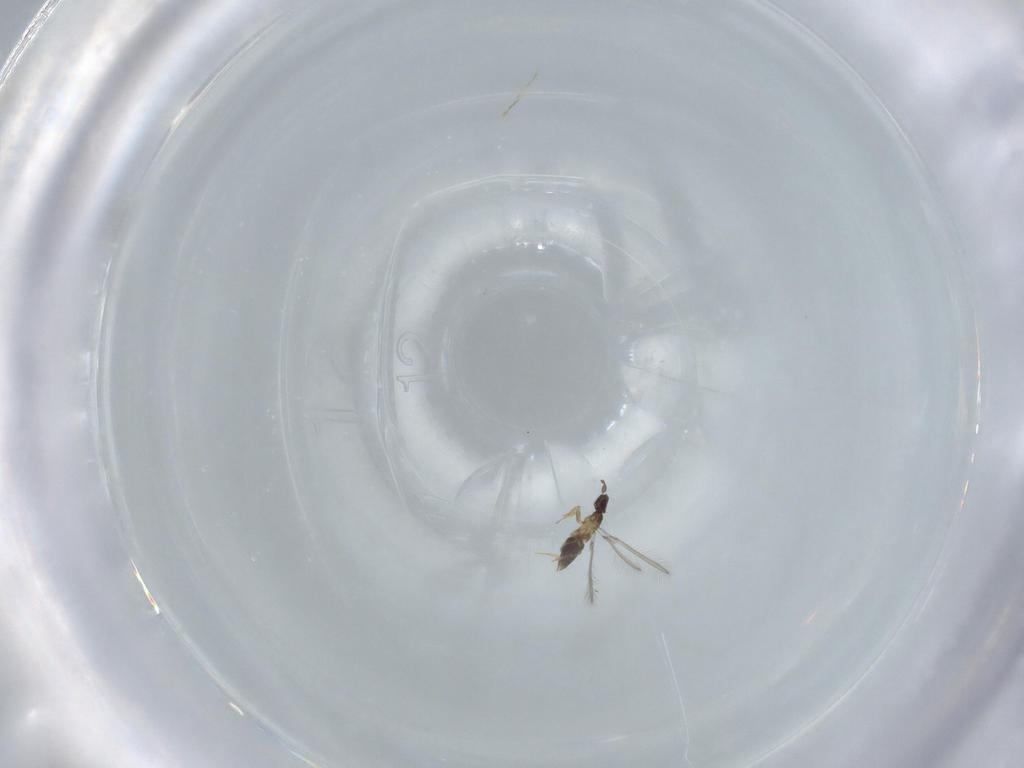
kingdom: Animalia
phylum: Arthropoda
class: Insecta
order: Hymenoptera
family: Mymaridae
